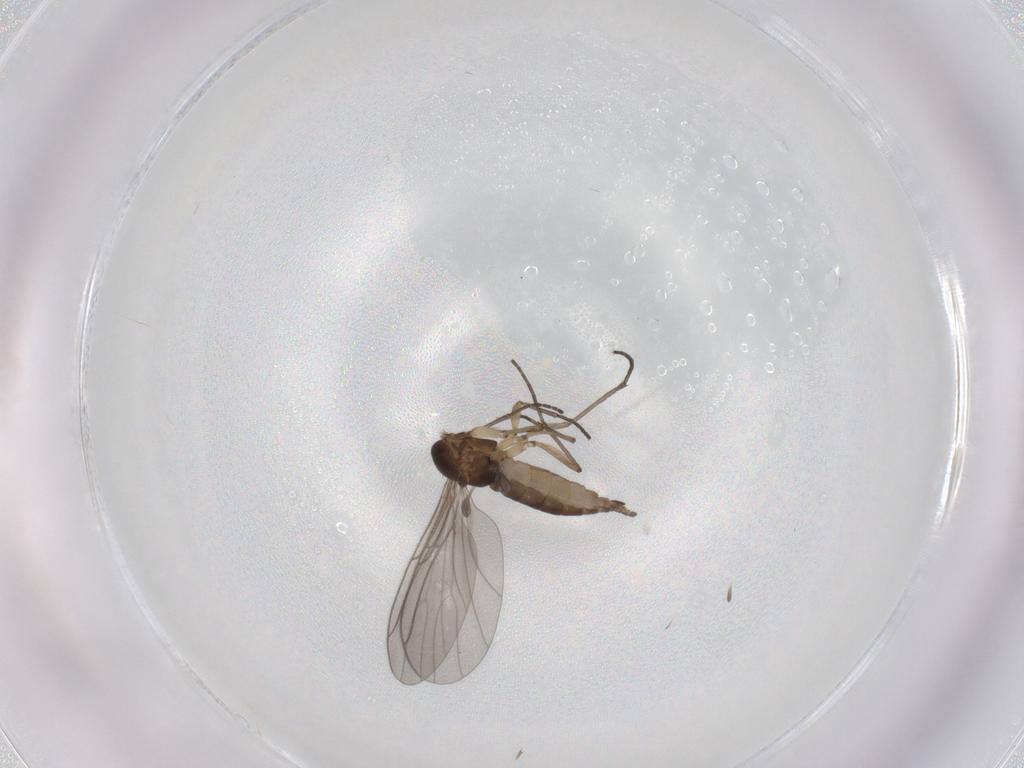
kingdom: Animalia
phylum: Arthropoda
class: Insecta
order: Diptera
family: Sciaridae
